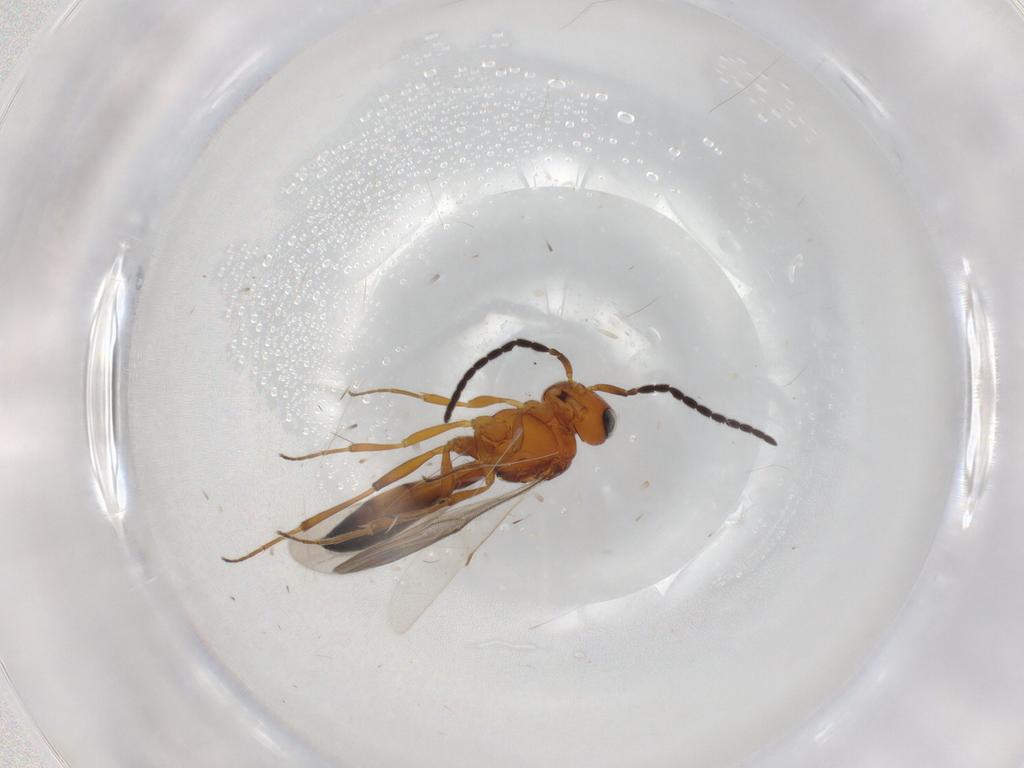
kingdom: Animalia
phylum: Arthropoda
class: Insecta
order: Hymenoptera
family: Scelionidae
